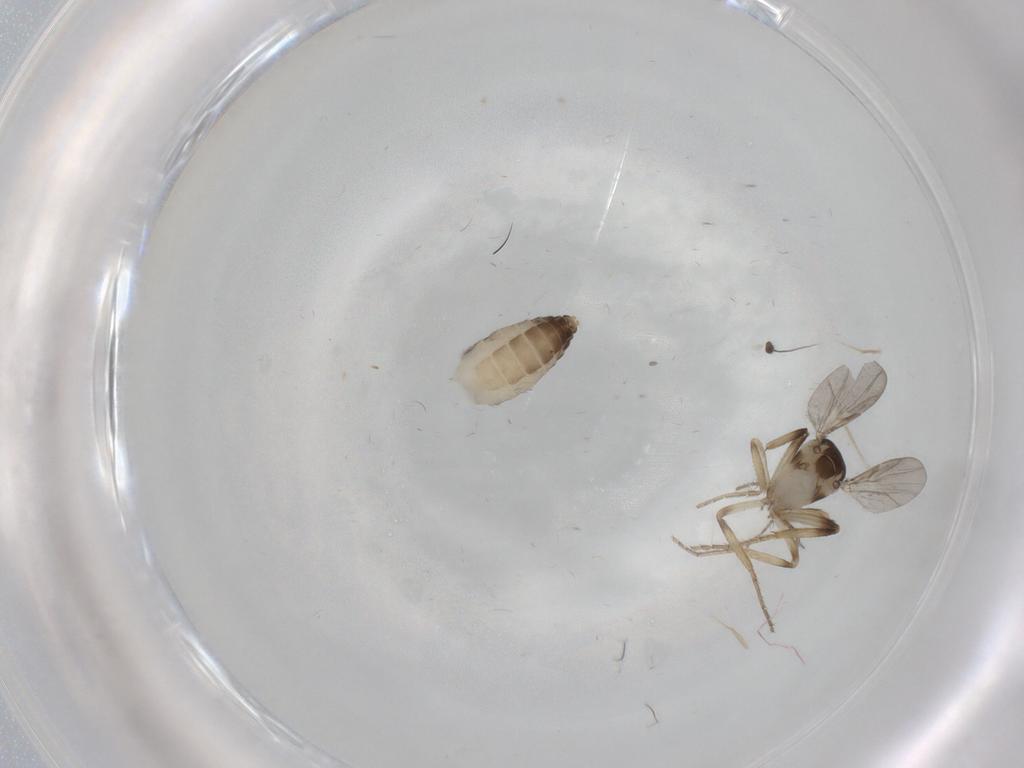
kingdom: Animalia
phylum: Arthropoda
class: Insecta
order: Diptera
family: Ceratopogonidae
